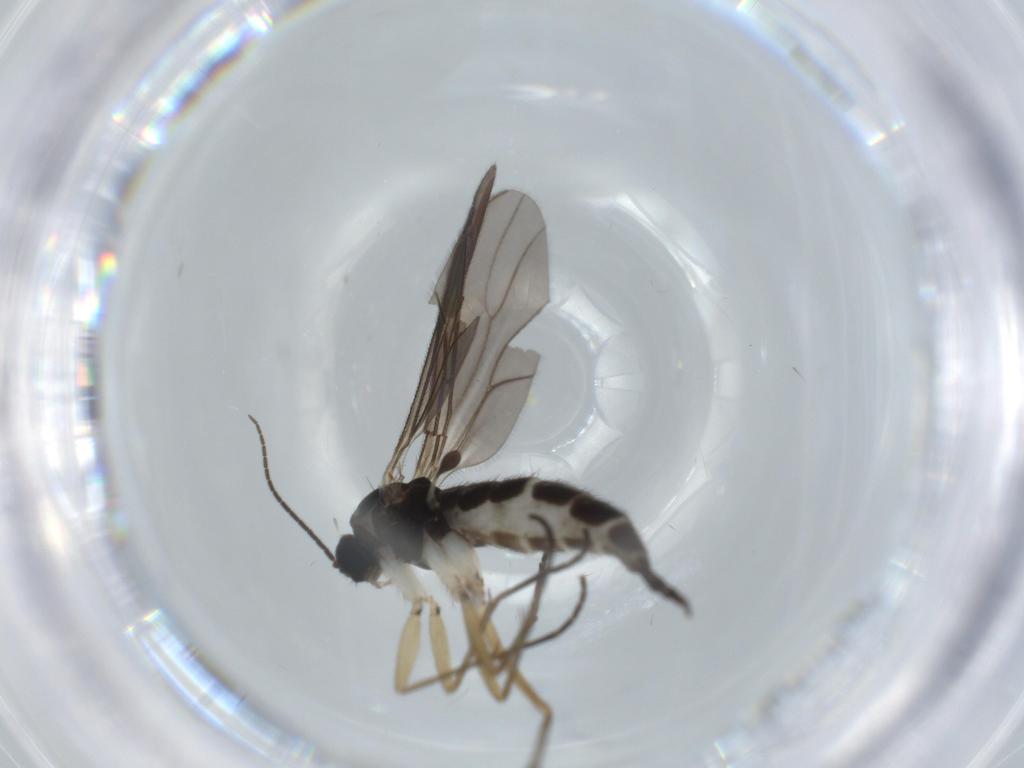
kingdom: Animalia
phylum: Arthropoda
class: Insecta
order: Diptera
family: Sciaridae
